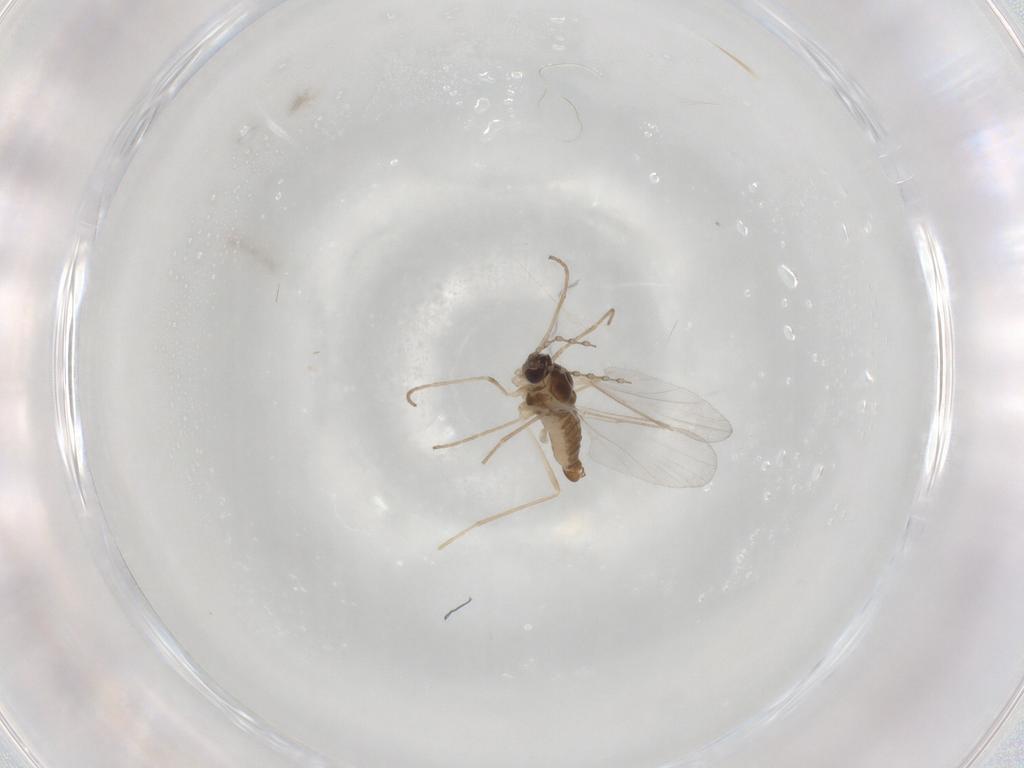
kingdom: Animalia
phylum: Arthropoda
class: Insecta
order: Diptera
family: Cecidomyiidae
